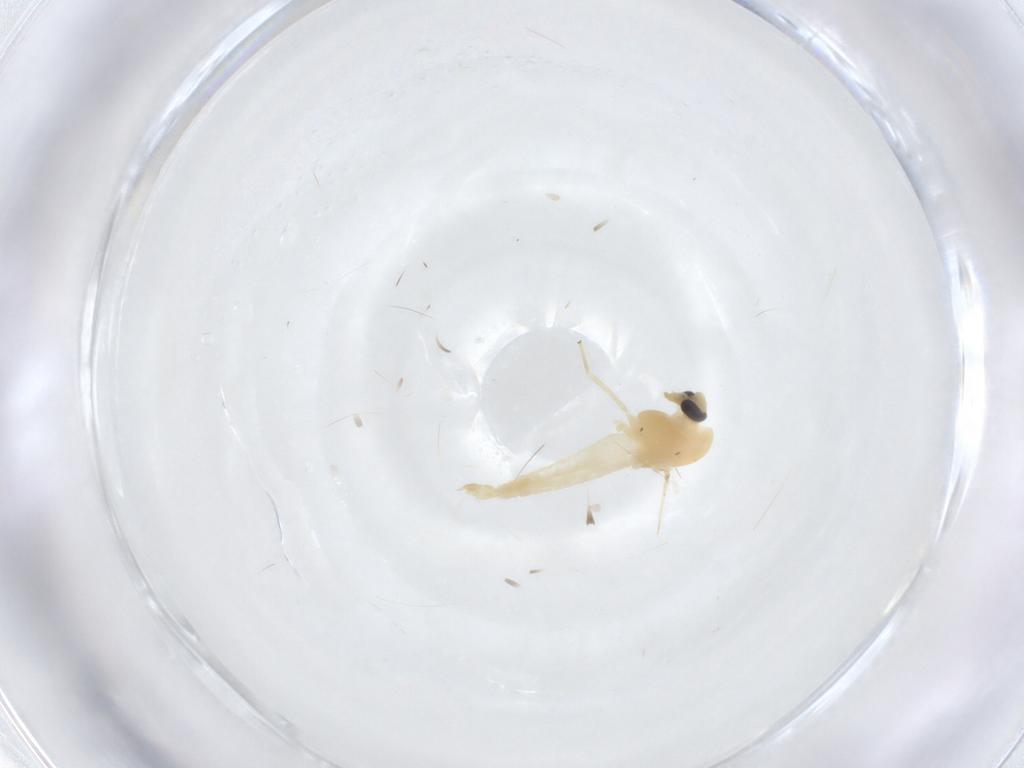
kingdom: Animalia
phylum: Arthropoda
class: Insecta
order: Diptera
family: Chironomidae
